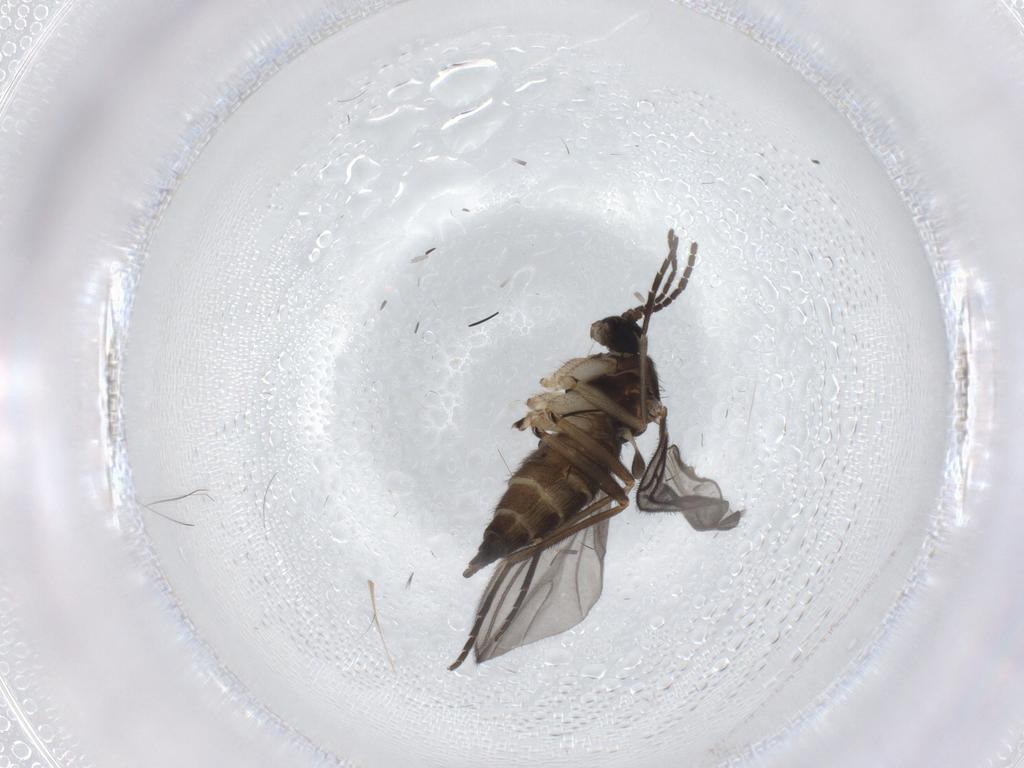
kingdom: Animalia
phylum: Arthropoda
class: Insecta
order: Diptera
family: Sciaridae
